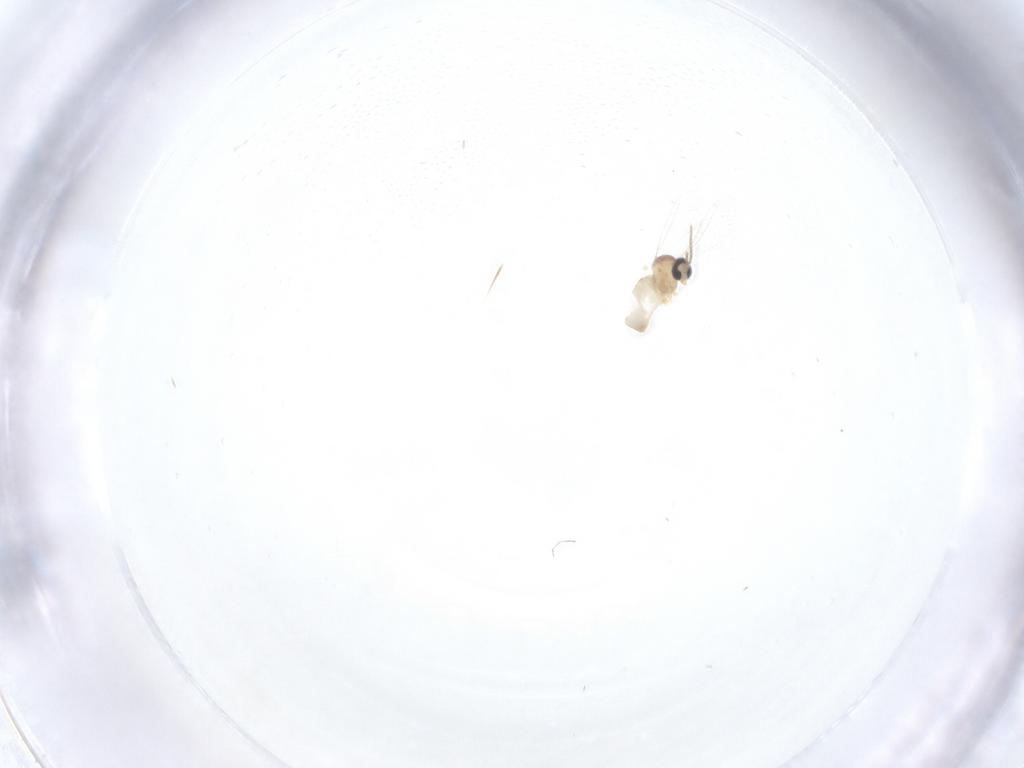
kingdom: Animalia
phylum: Arthropoda
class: Insecta
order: Diptera
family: Cecidomyiidae
